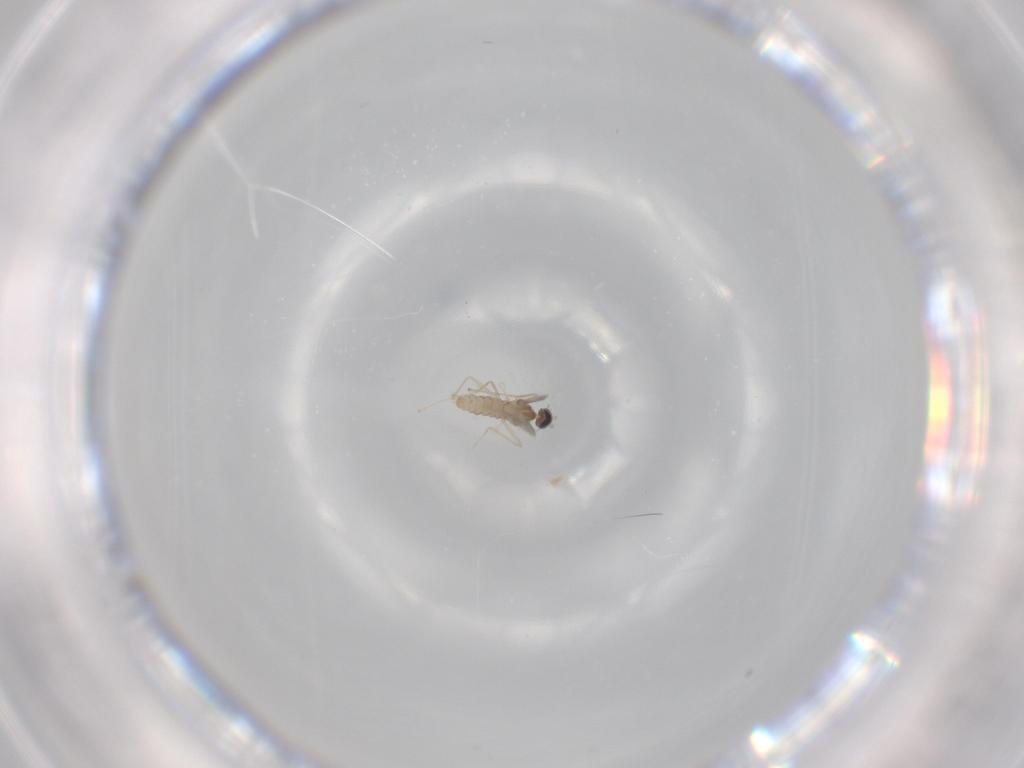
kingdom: Animalia
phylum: Arthropoda
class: Insecta
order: Diptera
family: Cecidomyiidae
